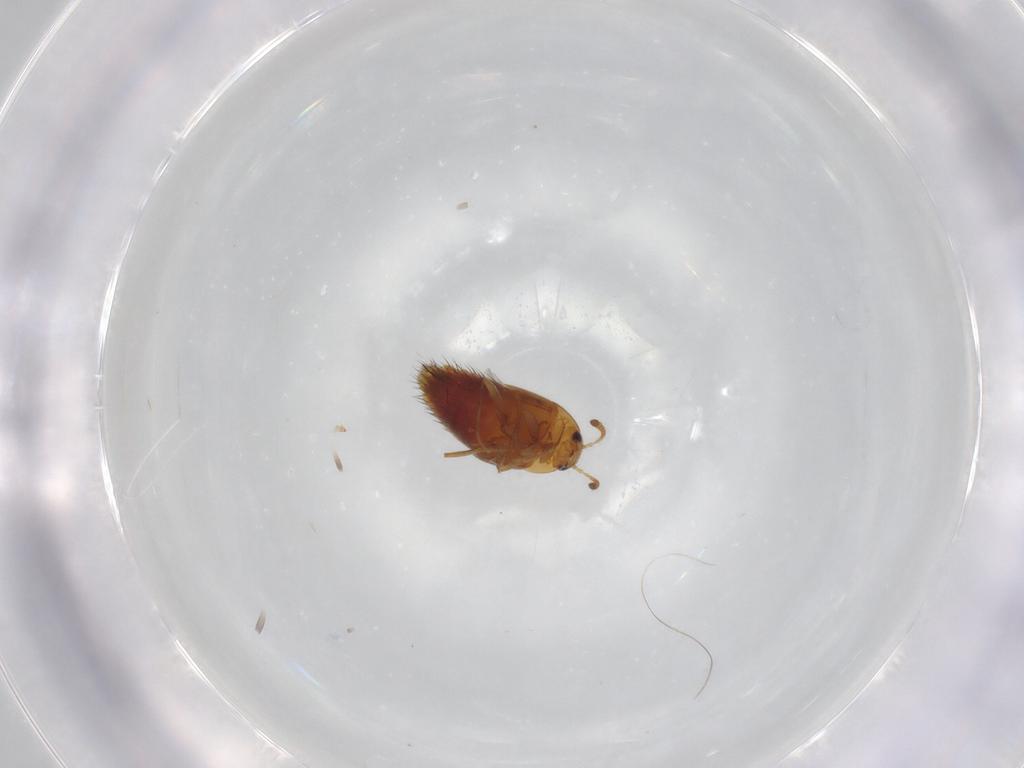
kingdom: Animalia
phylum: Arthropoda
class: Insecta
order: Coleoptera
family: Staphylinidae
